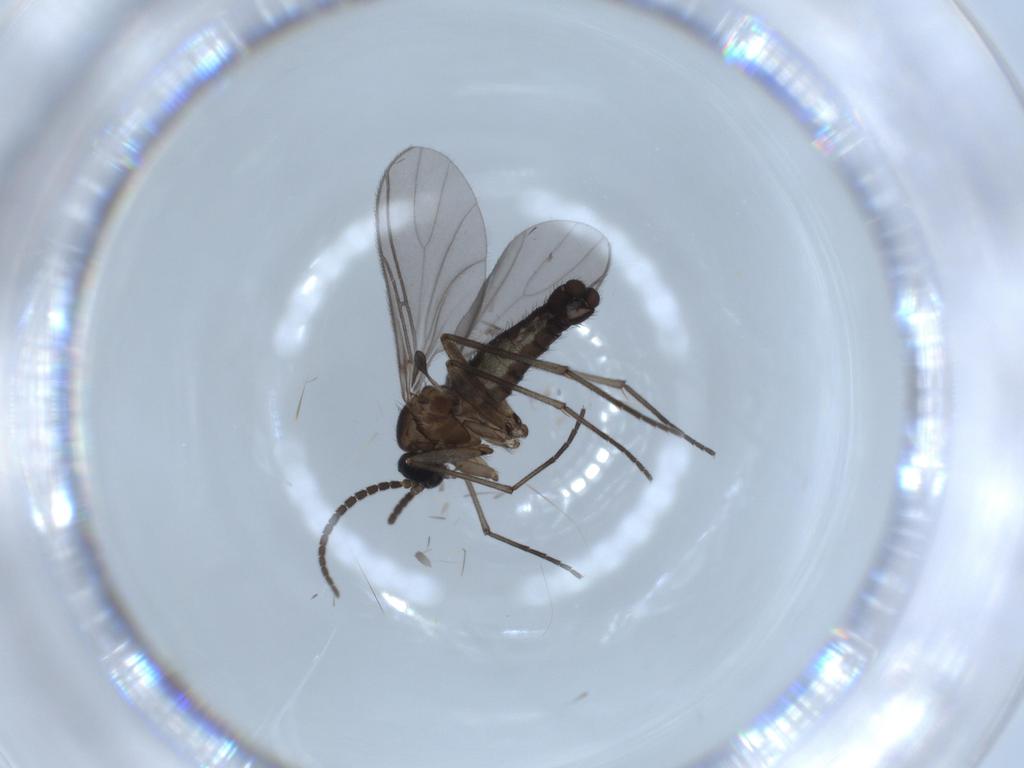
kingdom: Animalia
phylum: Arthropoda
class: Insecta
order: Diptera
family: Sciaridae
